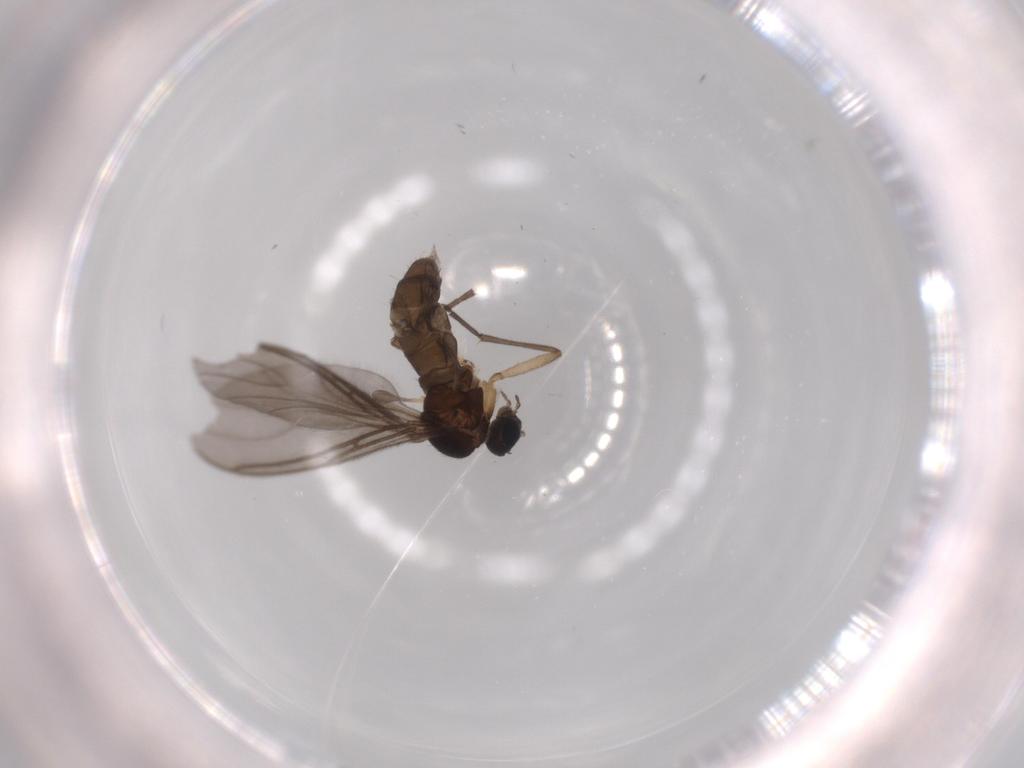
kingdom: Animalia
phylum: Arthropoda
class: Insecta
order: Diptera
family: Sciaridae
